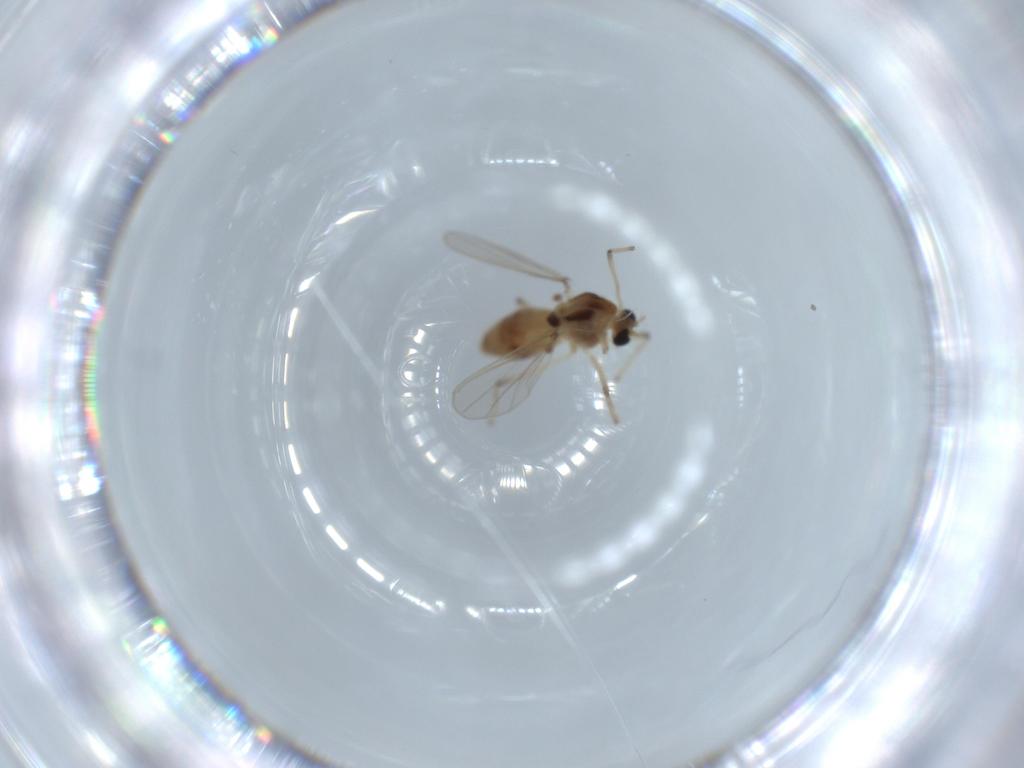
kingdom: Animalia
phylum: Arthropoda
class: Insecta
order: Diptera
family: Chironomidae
